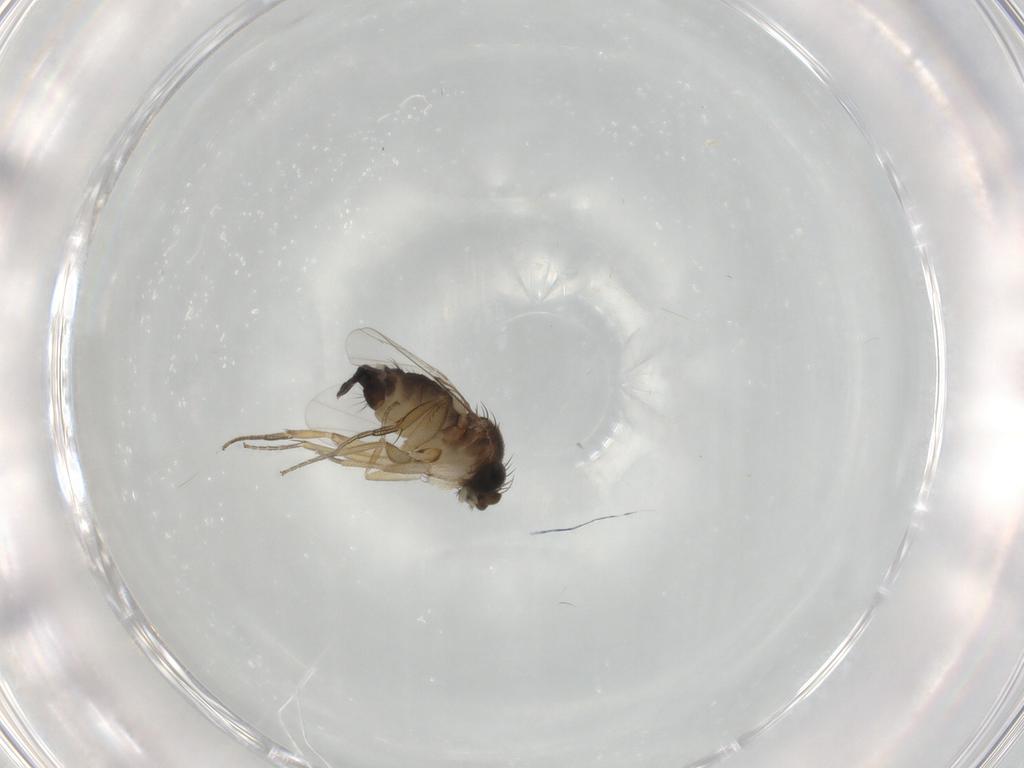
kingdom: Animalia
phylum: Arthropoda
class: Insecta
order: Diptera
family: Phoridae
